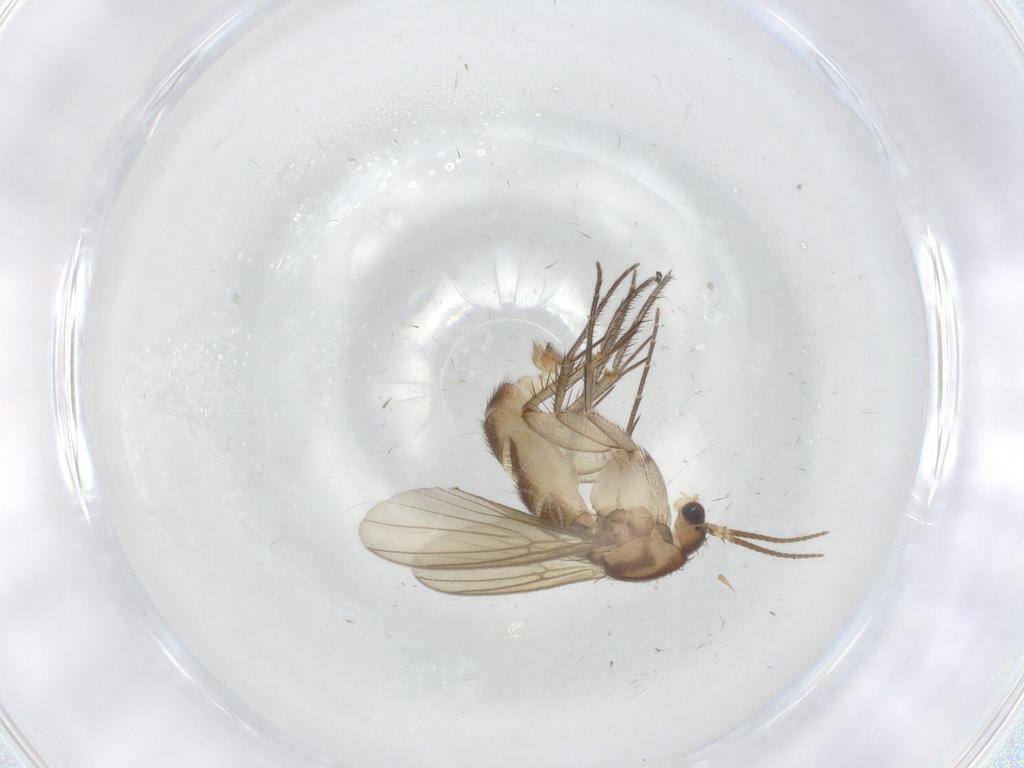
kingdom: Animalia
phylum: Arthropoda
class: Insecta
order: Diptera
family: Mycetophilidae
